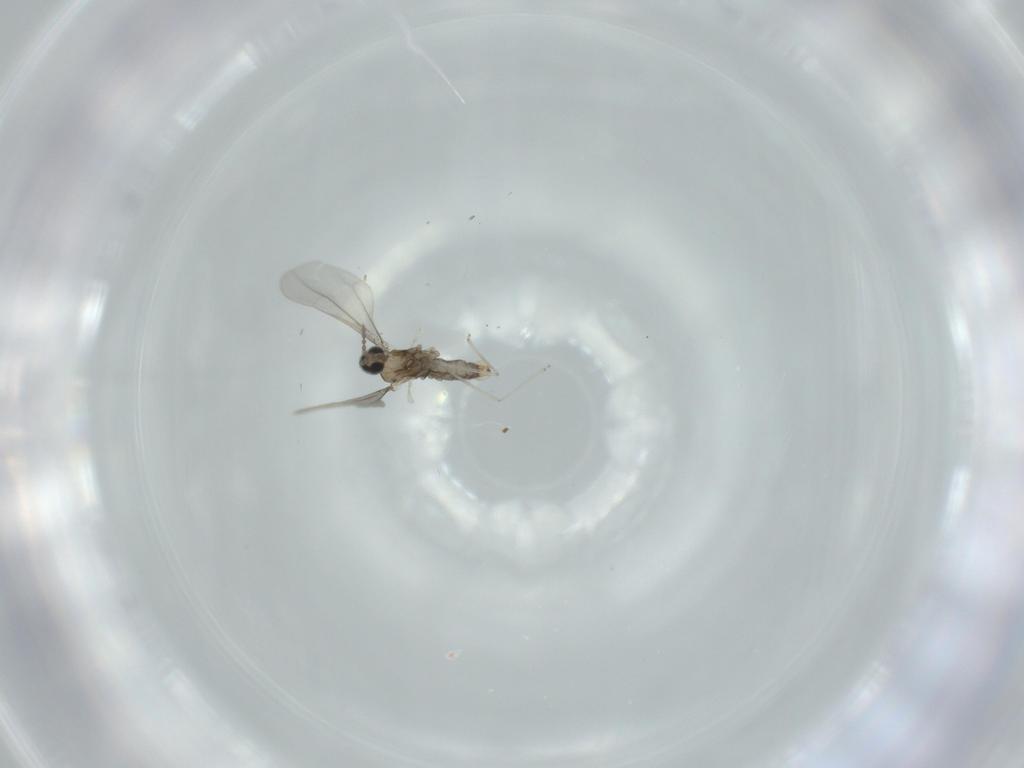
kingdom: Animalia
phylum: Arthropoda
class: Insecta
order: Diptera
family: Cecidomyiidae
